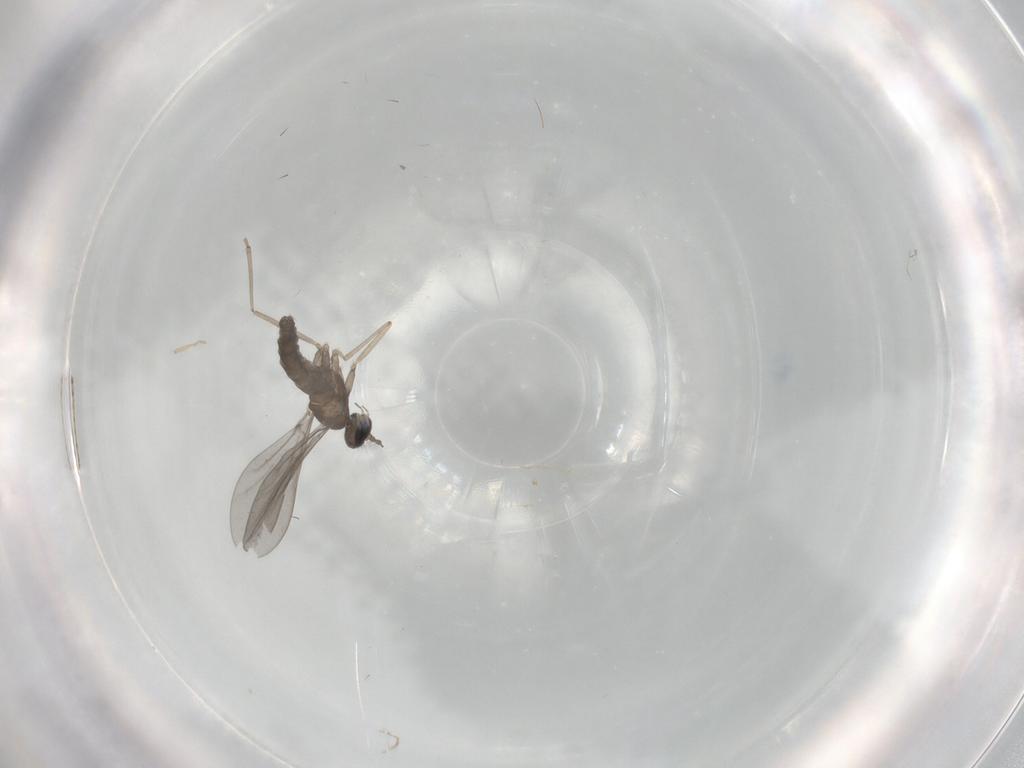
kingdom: Animalia
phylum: Arthropoda
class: Insecta
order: Diptera
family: Cecidomyiidae
